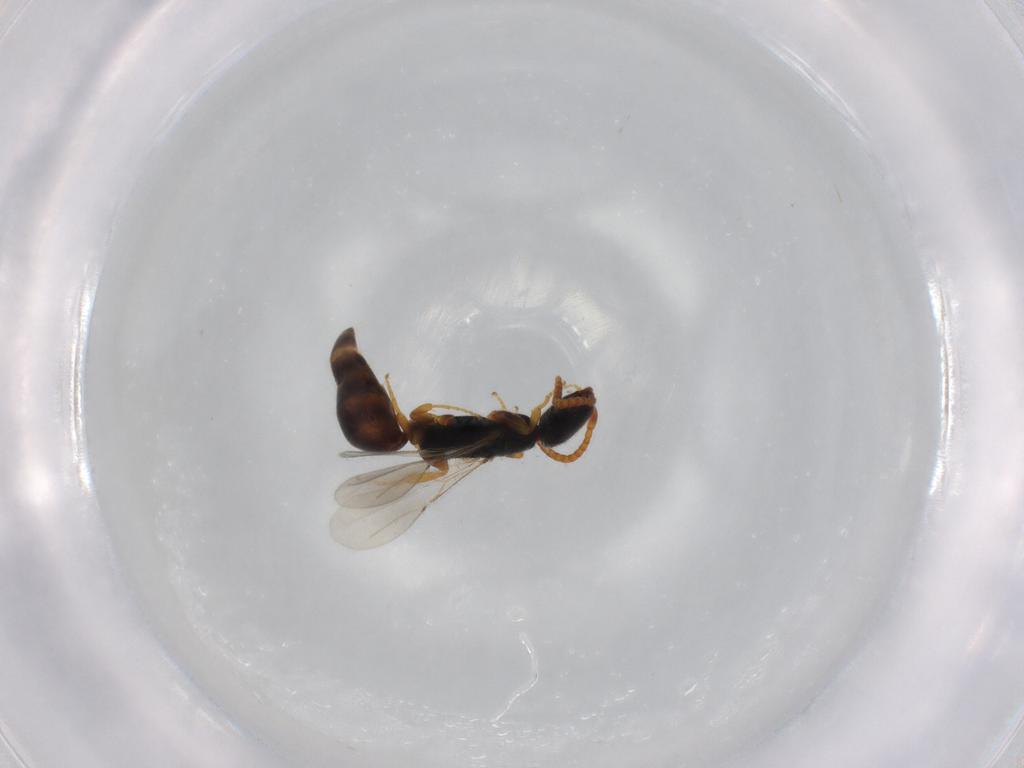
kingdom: Animalia
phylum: Arthropoda
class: Insecta
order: Hymenoptera
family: Bethylidae
